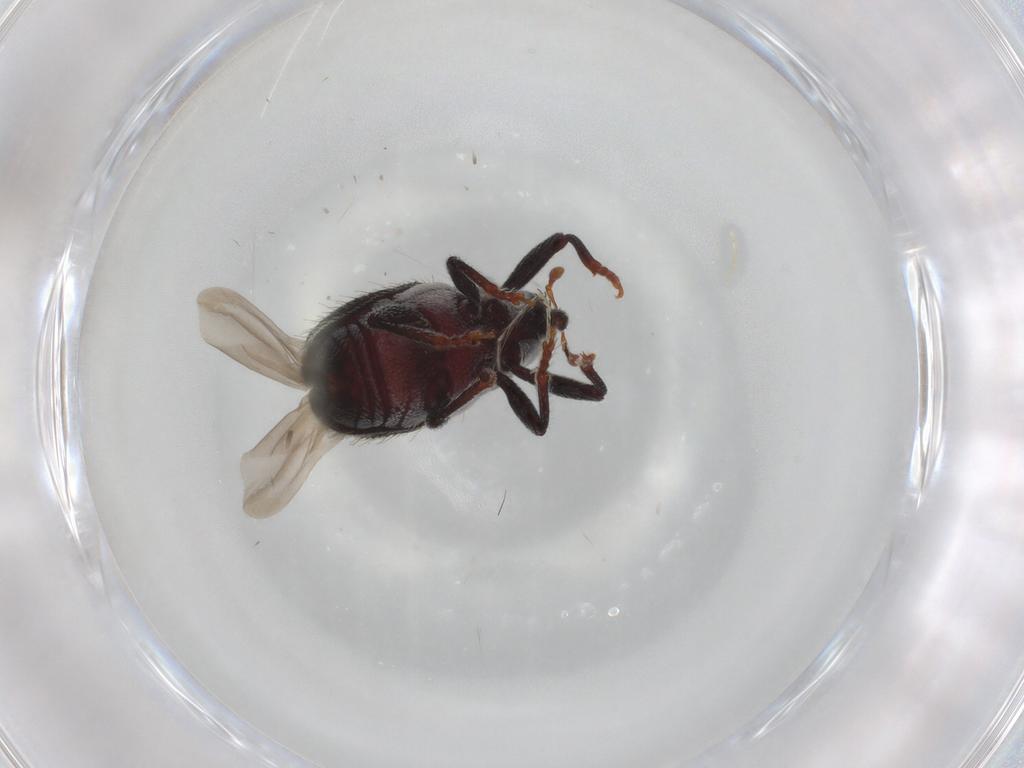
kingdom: Animalia
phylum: Arthropoda
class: Insecta
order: Coleoptera
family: Curculionidae
